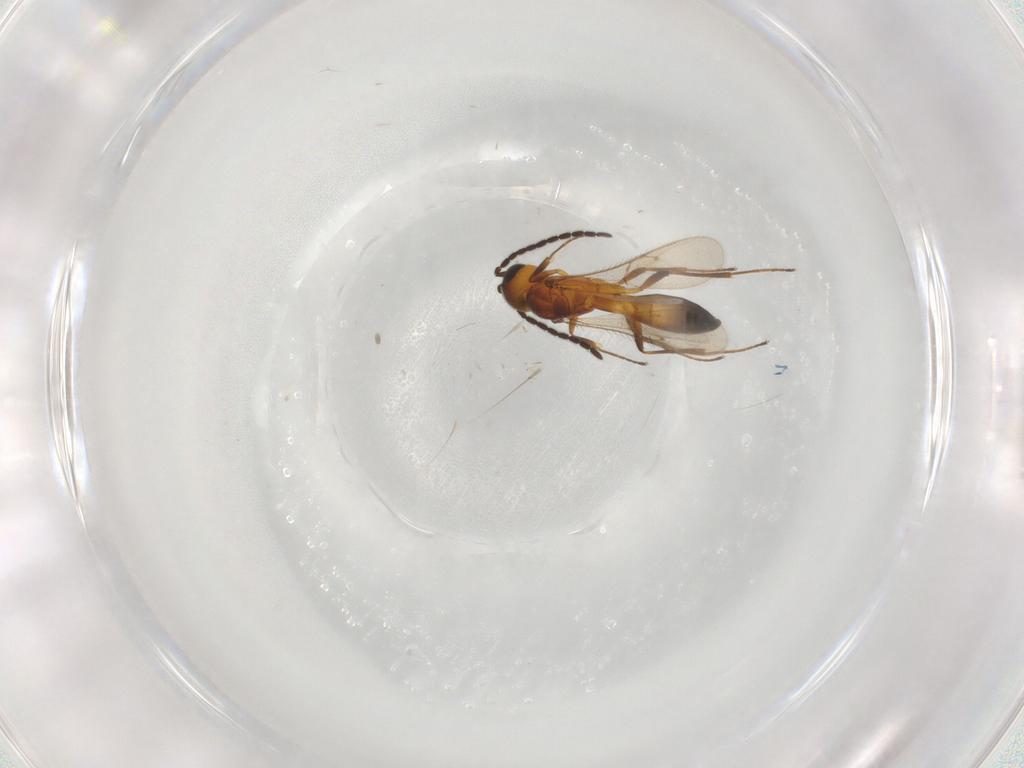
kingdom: Animalia
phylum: Arthropoda
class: Insecta
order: Hymenoptera
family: Scelionidae
